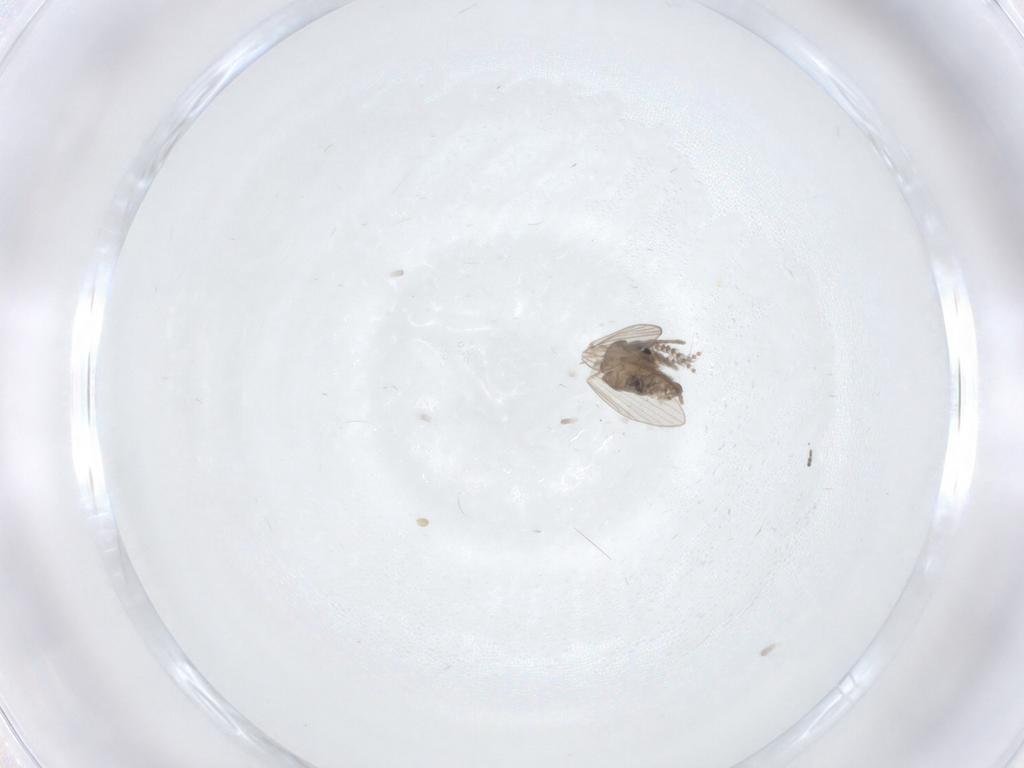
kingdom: Animalia
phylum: Arthropoda
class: Insecta
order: Diptera
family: Psychodidae
